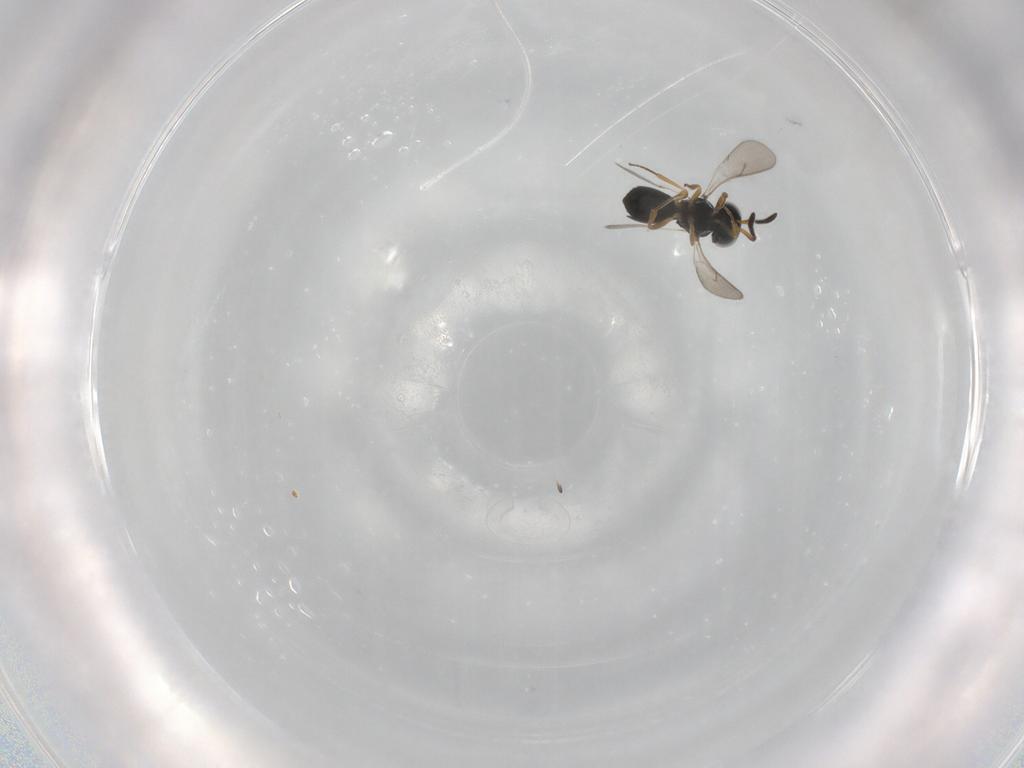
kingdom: Animalia
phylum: Arthropoda
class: Insecta
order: Hymenoptera
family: Scelionidae
